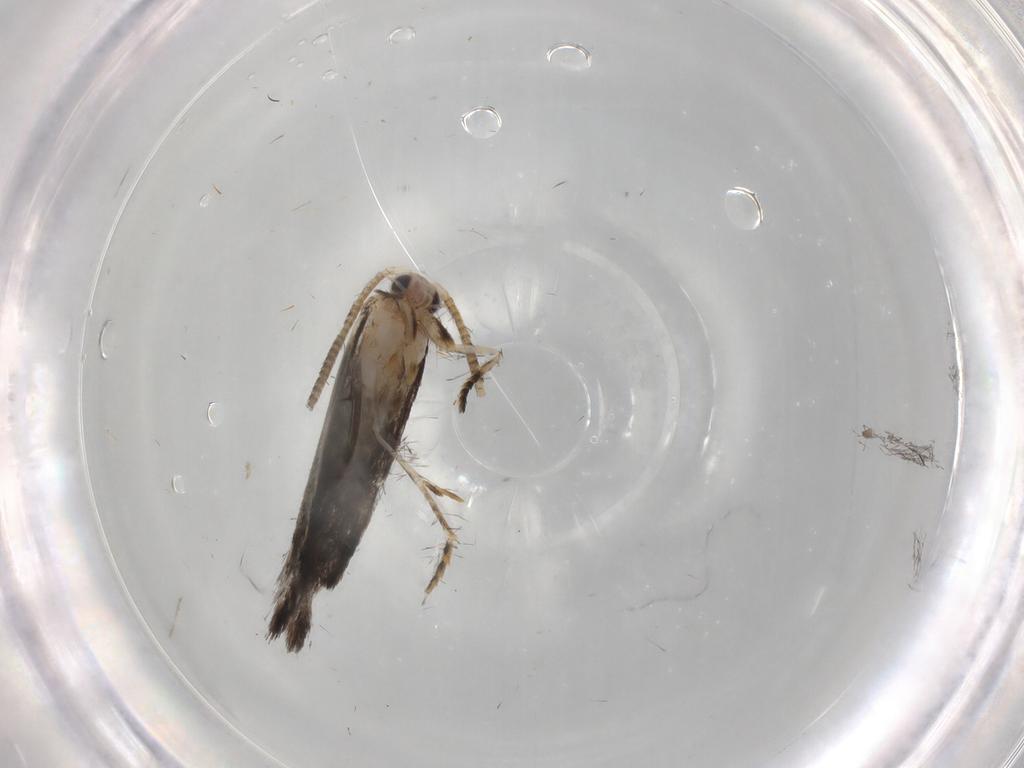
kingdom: Animalia
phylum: Arthropoda
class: Insecta
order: Lepidoptera
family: Tineidae
